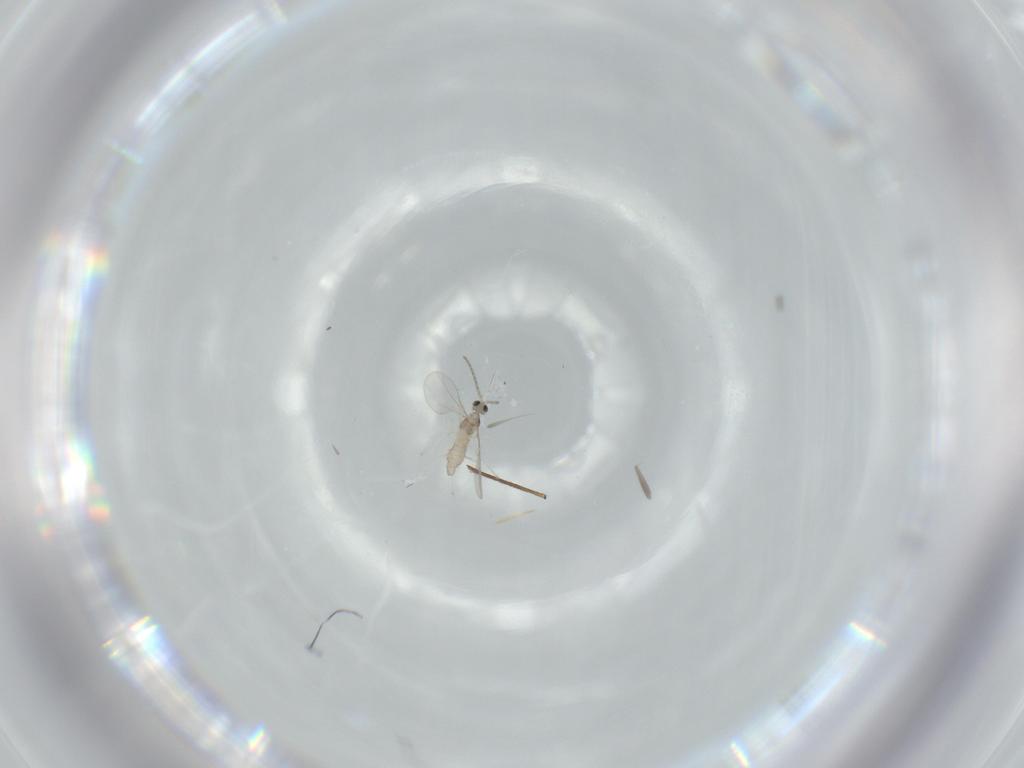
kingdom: Animalia
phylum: Arthropoda
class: Insecta
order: Diptera
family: Cecidomyiidae
